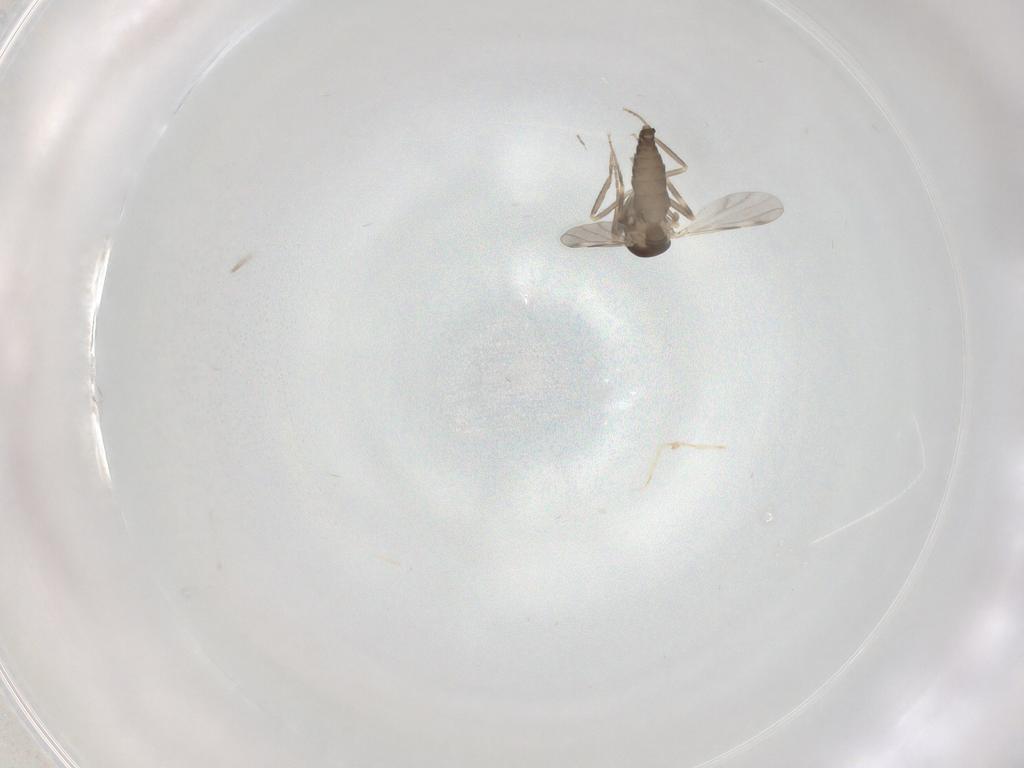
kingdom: Animalia
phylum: Arthropoda
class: Insecta
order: Diptera
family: Ceratopogonidae
